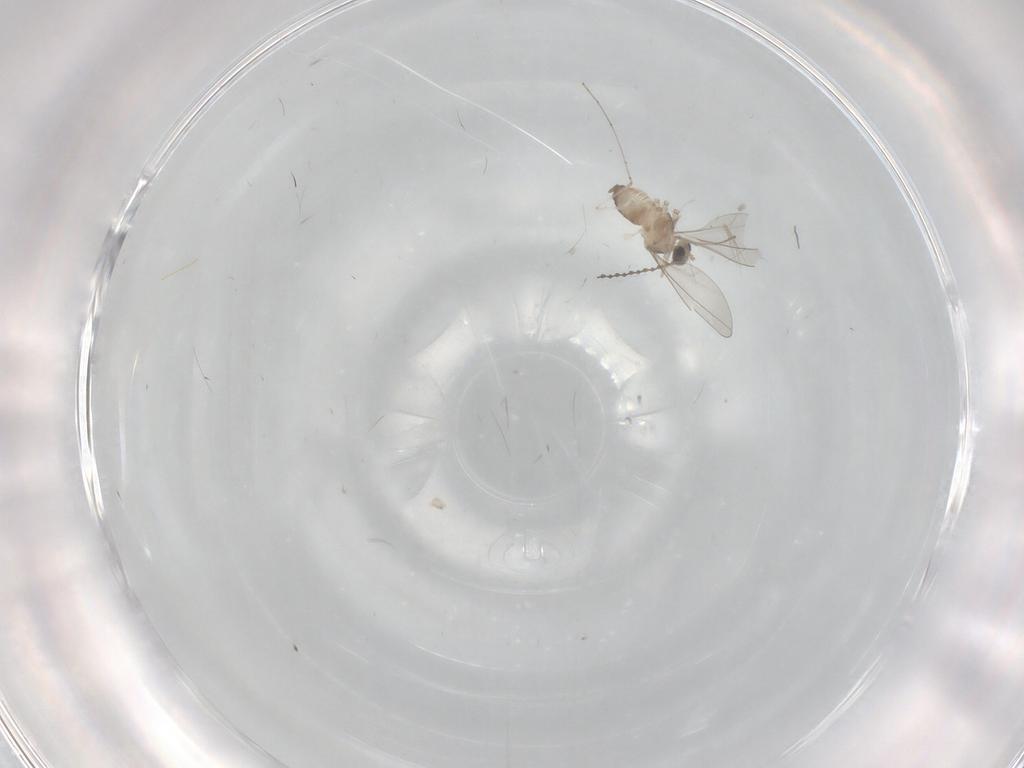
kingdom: Animalia
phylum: Arthropoda
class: Insecta
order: Diptera
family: Cecidomyiidae
